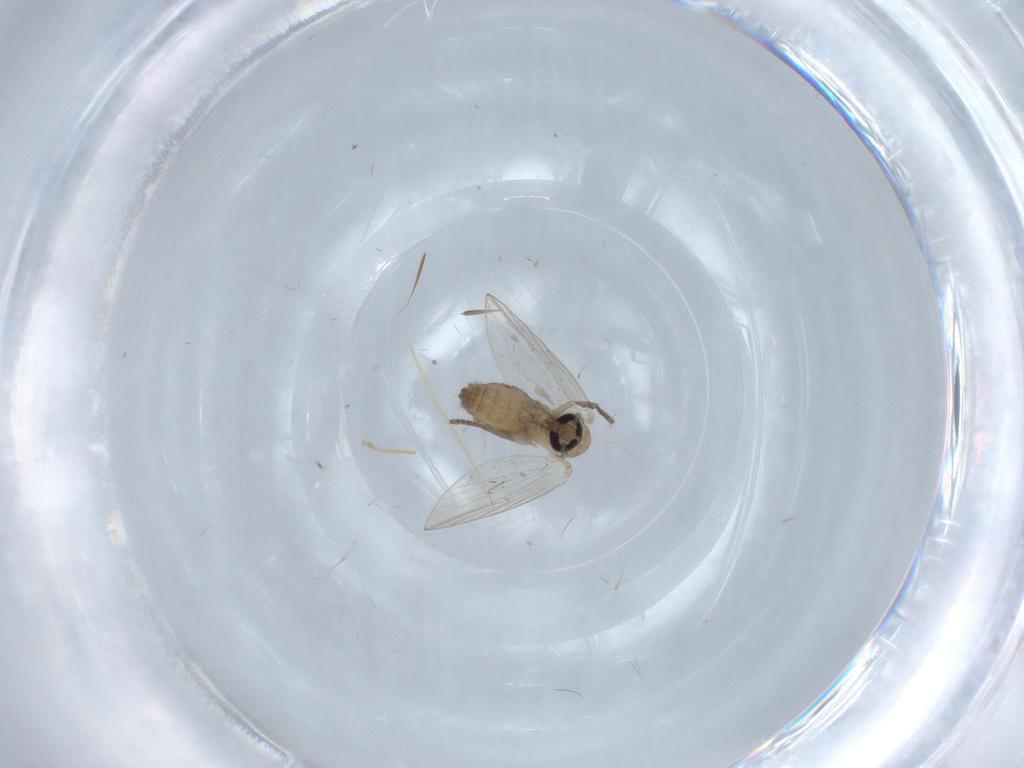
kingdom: Animalia
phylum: Arthropoda
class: Insecta
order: Diptera
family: Psychodidae
